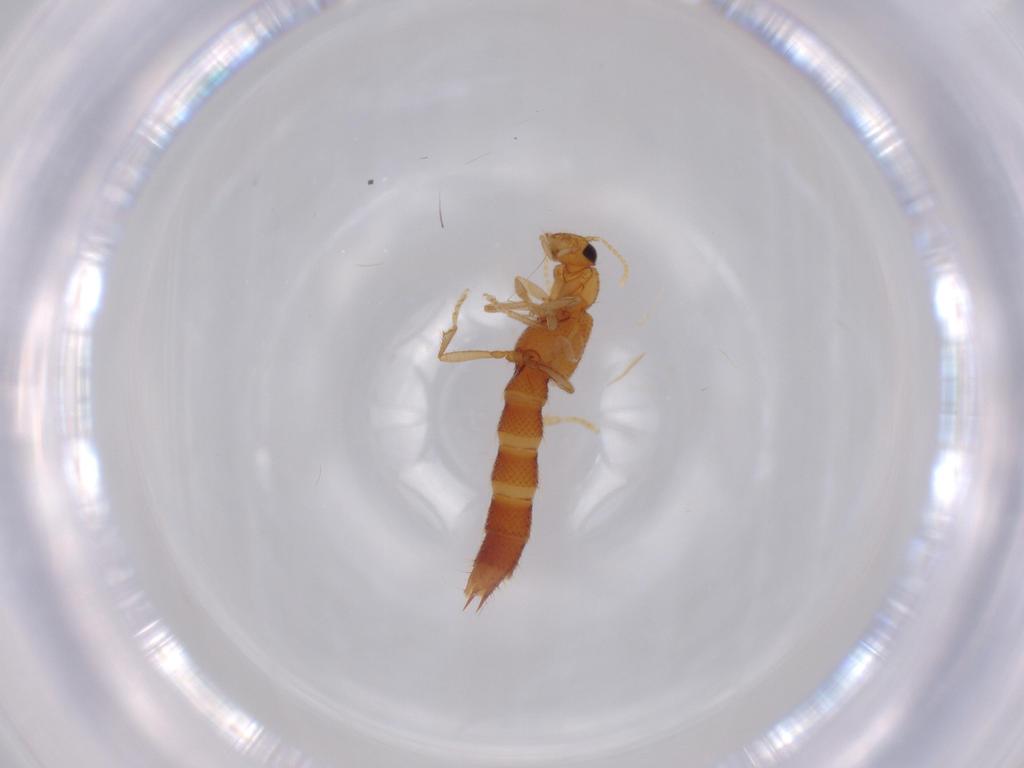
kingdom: Animalia
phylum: Arthropoda
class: Insecta
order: Coleoptera
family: Staphylinidae
